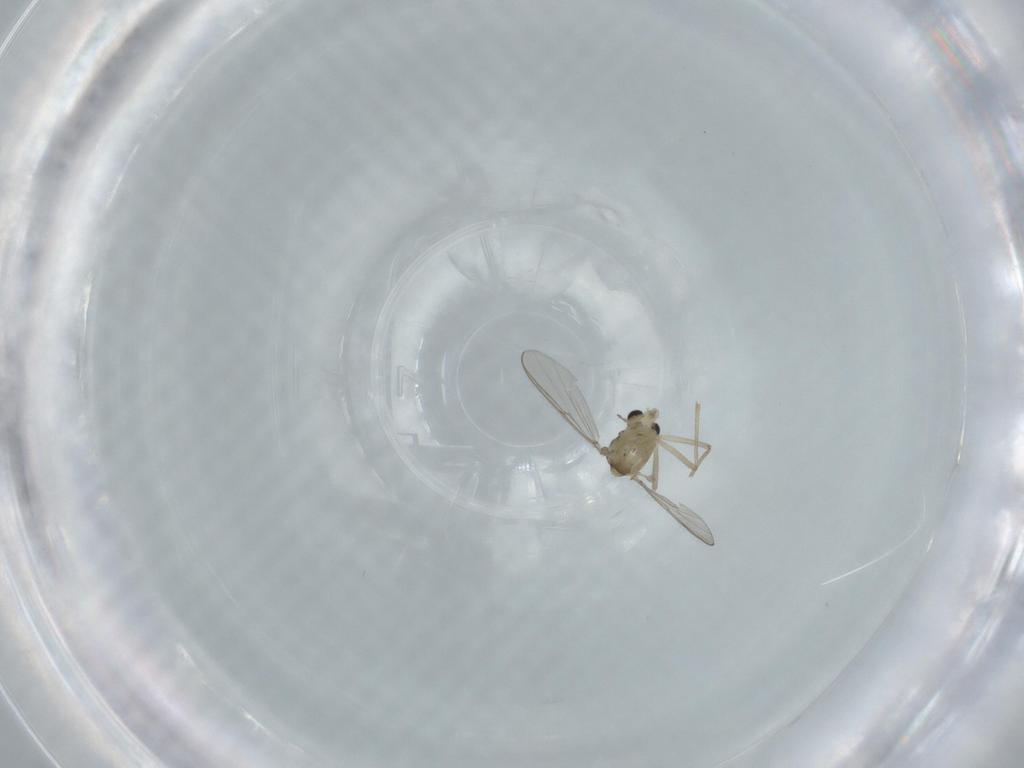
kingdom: Animalia
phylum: Arthropoda
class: Insecta
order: Diptera
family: Chironomidae
